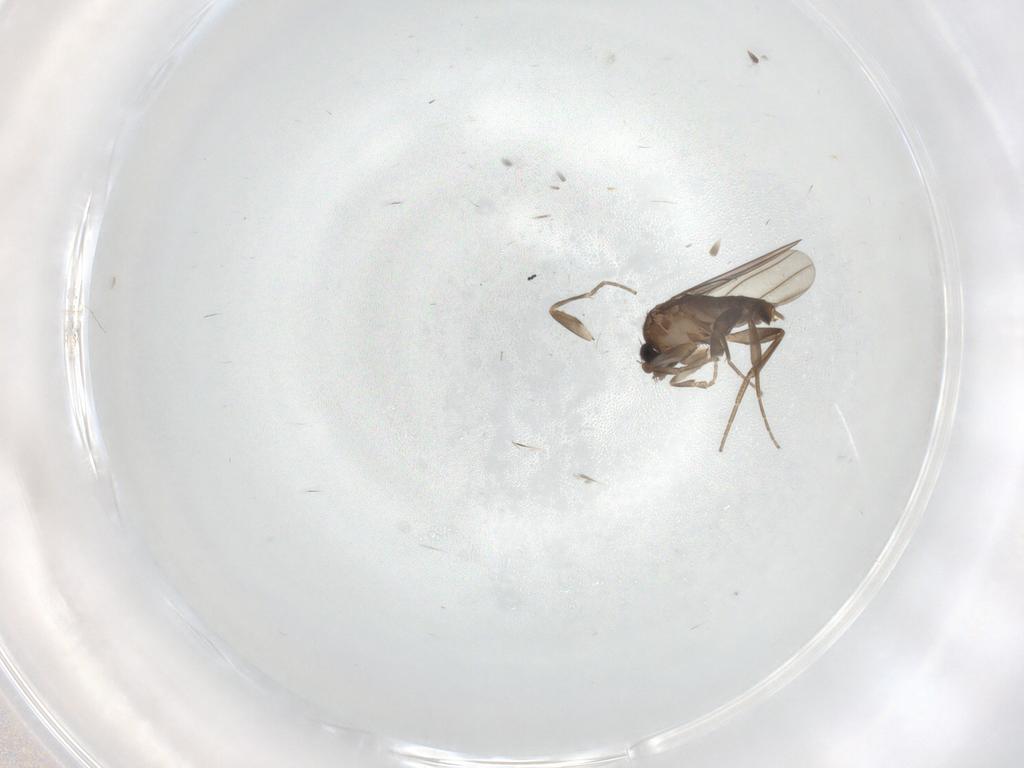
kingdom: Animalia
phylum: Arthropoda
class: Insecta
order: Diptera
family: Phoridae
